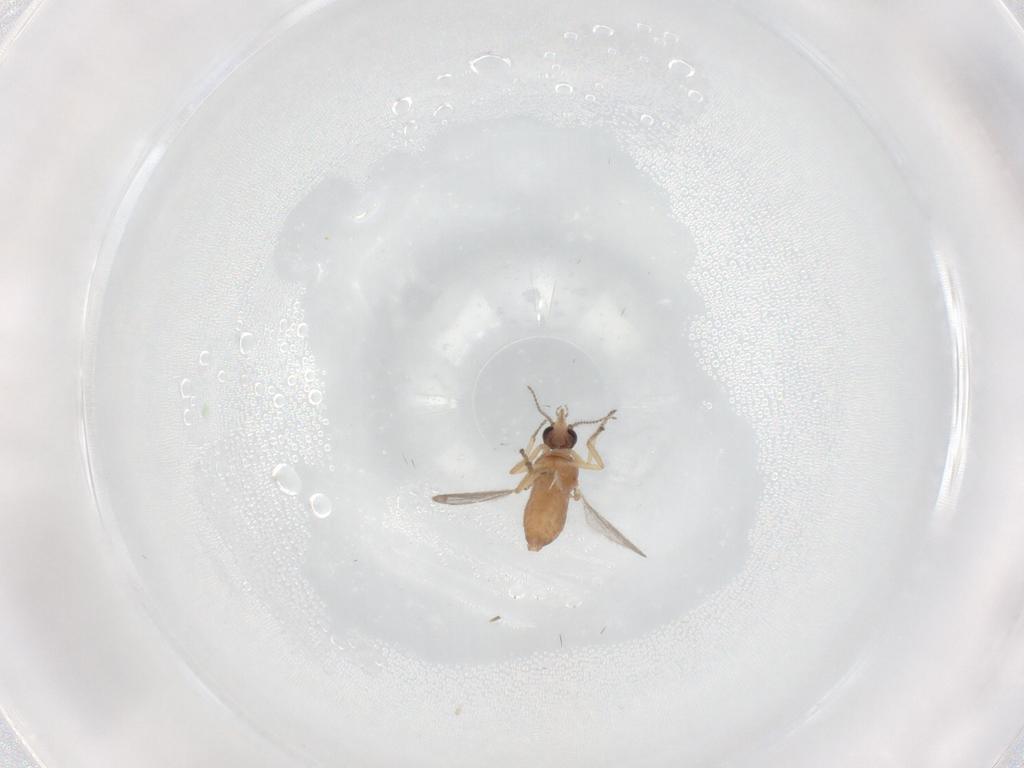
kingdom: Animalia
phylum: Arthropoda
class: Insecta
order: Diptera
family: Ceratopogonidae
